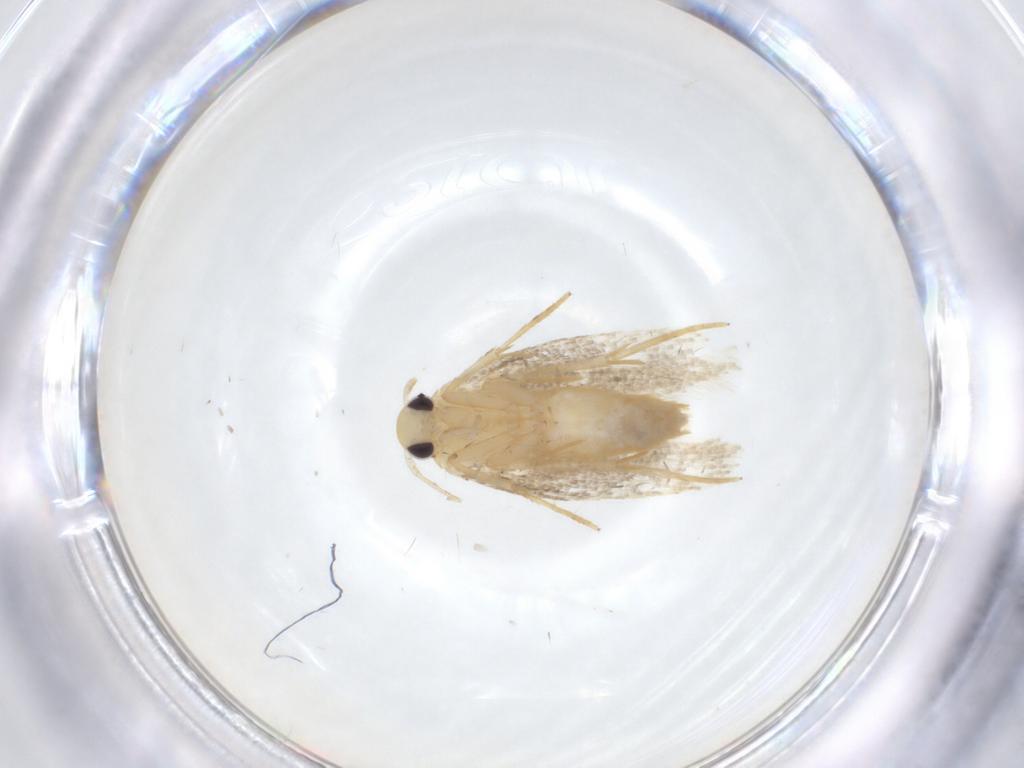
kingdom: Animalia
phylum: Arthropoda
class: Insecta
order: Lepidoptera
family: Erebidae
